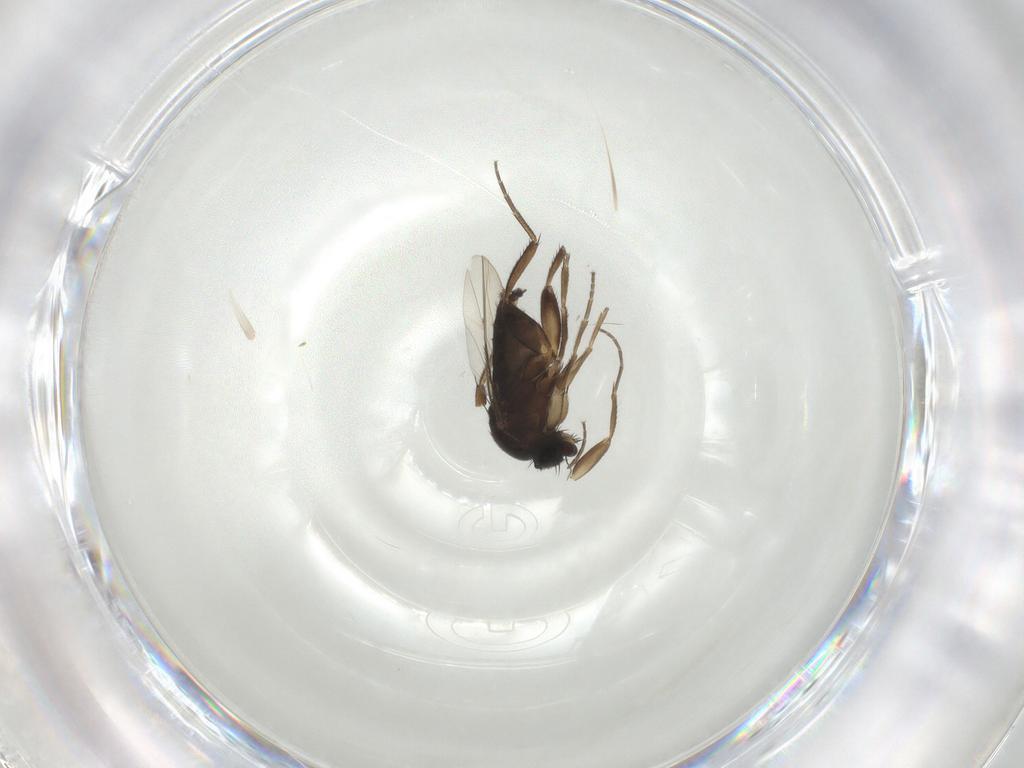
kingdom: Animalia
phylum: Arthropoda
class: Insecta
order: Diptera
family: Phoridae
